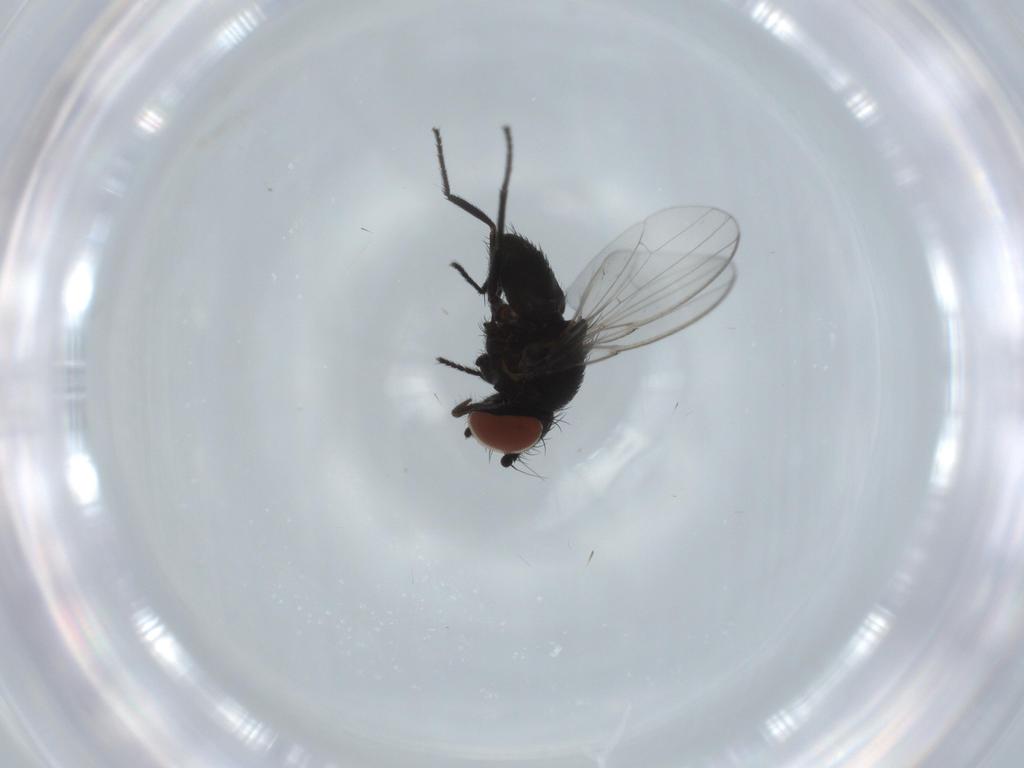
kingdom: Animalia
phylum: Arthropoda
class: Insecta
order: Diptera
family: Milichiidae
